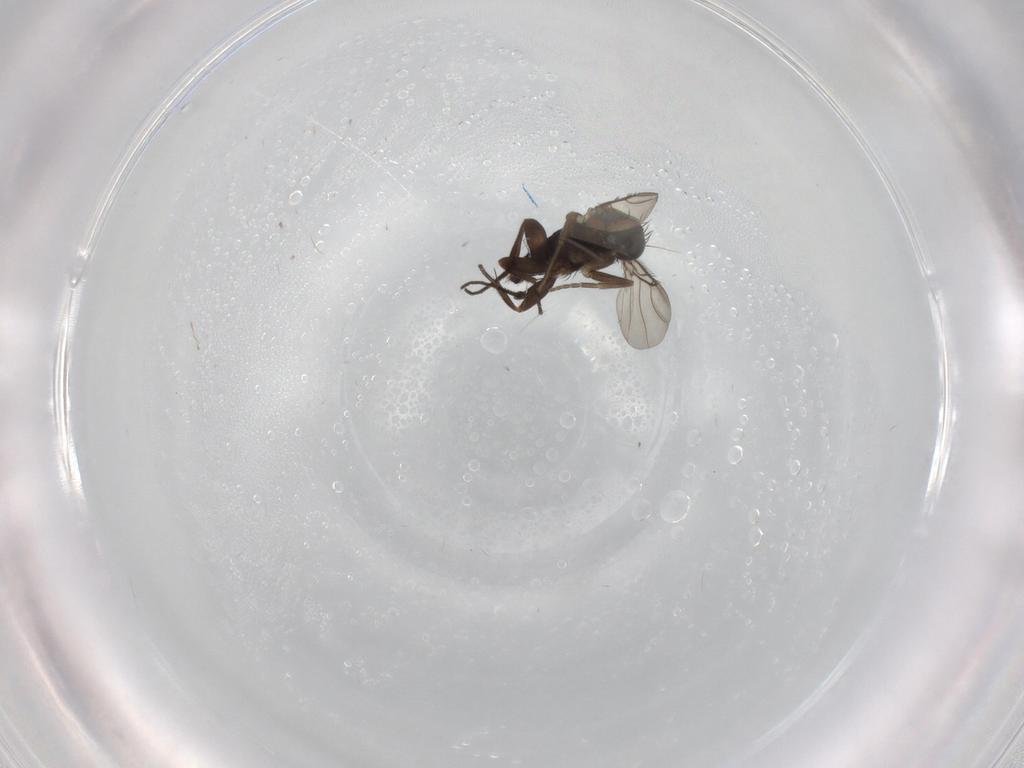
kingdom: Animalia
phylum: Arthropoda
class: Insecta
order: Diptera
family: Phoridae
